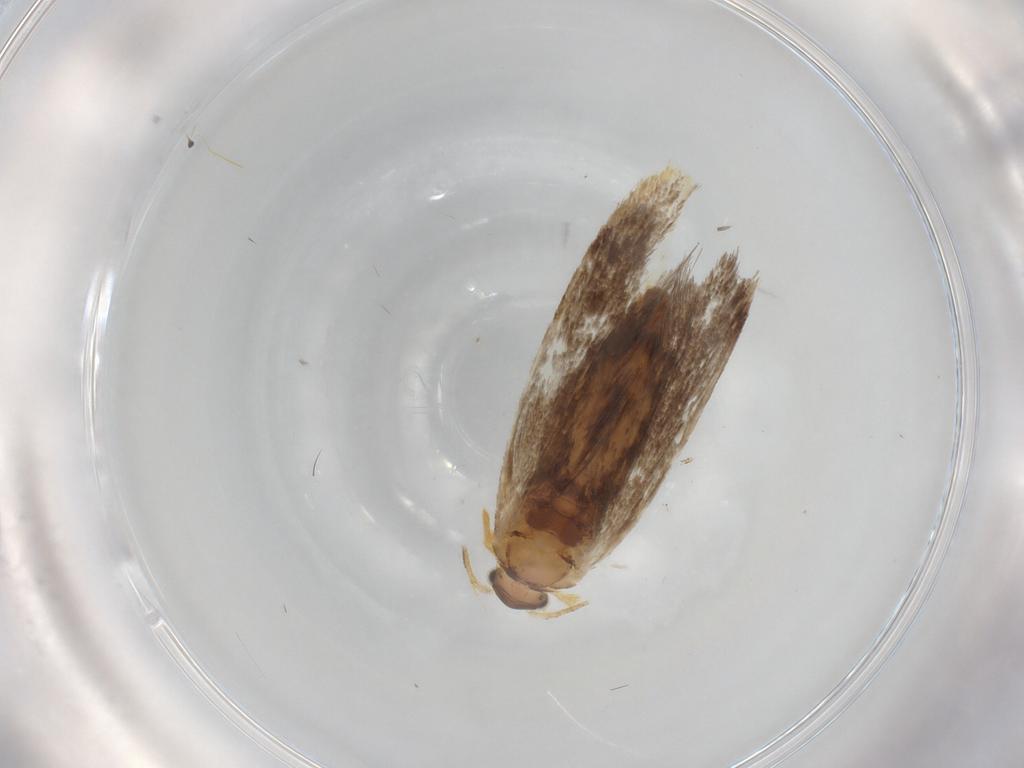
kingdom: Animalia
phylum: Arthropoda
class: Insecta
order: Lepidoptera
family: Dryadaulidae
